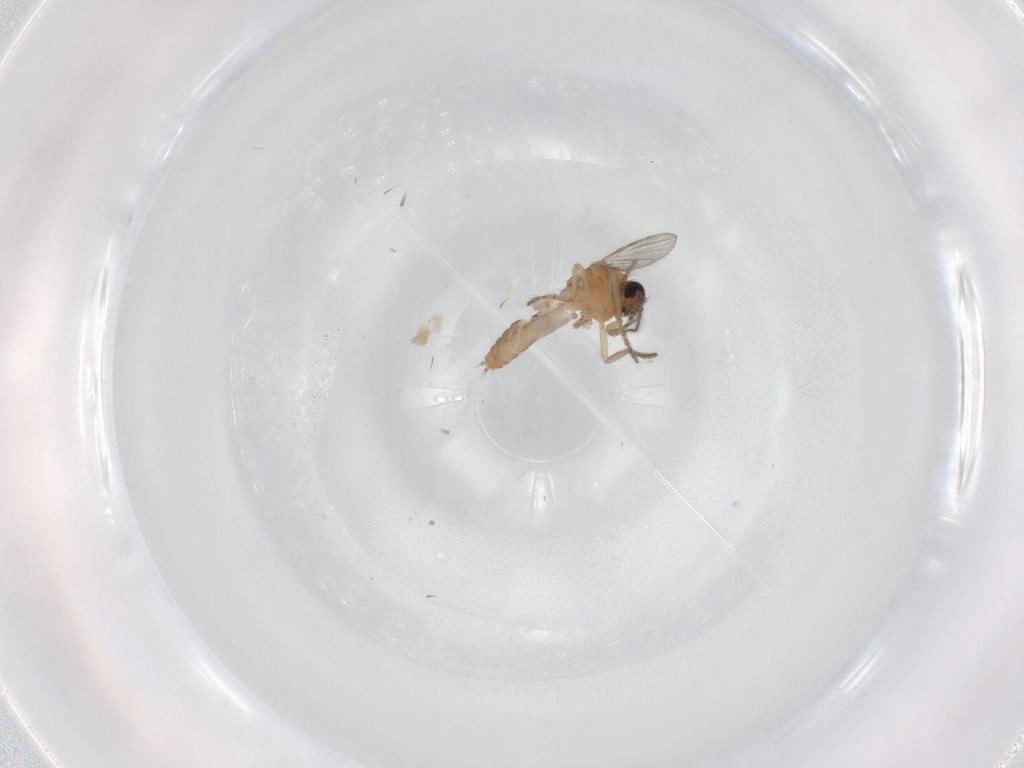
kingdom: Animalia
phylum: Arthropoda
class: Insecta
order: Diptera
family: Ceratopogonidae
